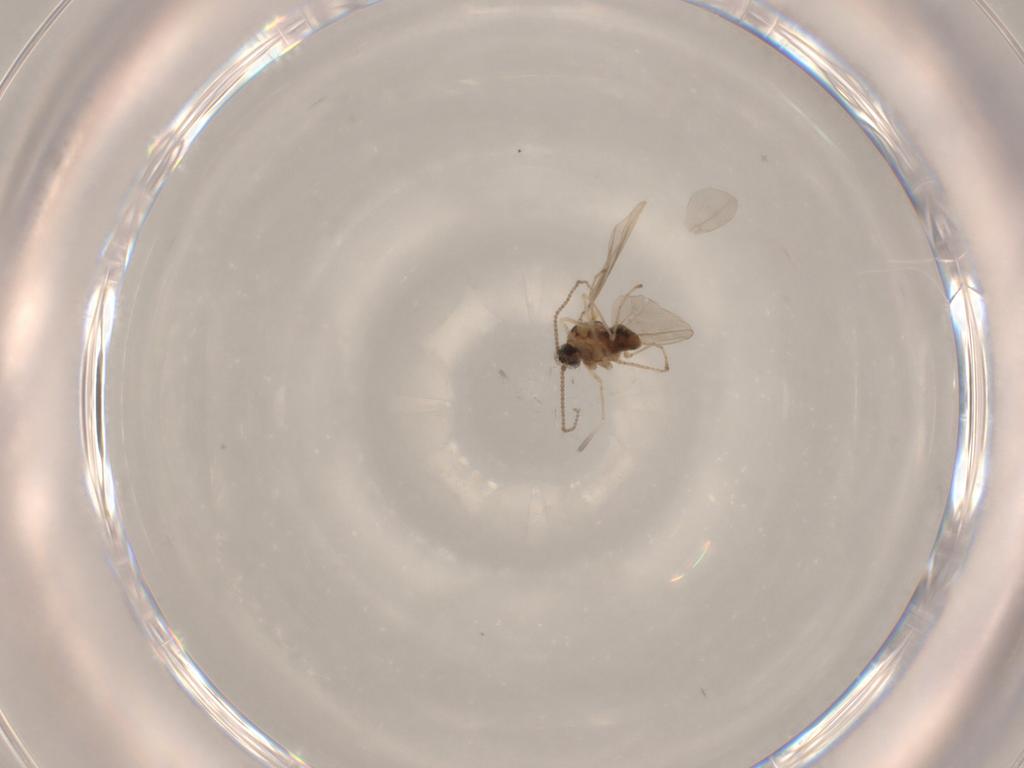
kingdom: Animalia
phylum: Arthropoda
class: Insecta
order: Diptera
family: Cecidomyiidae
